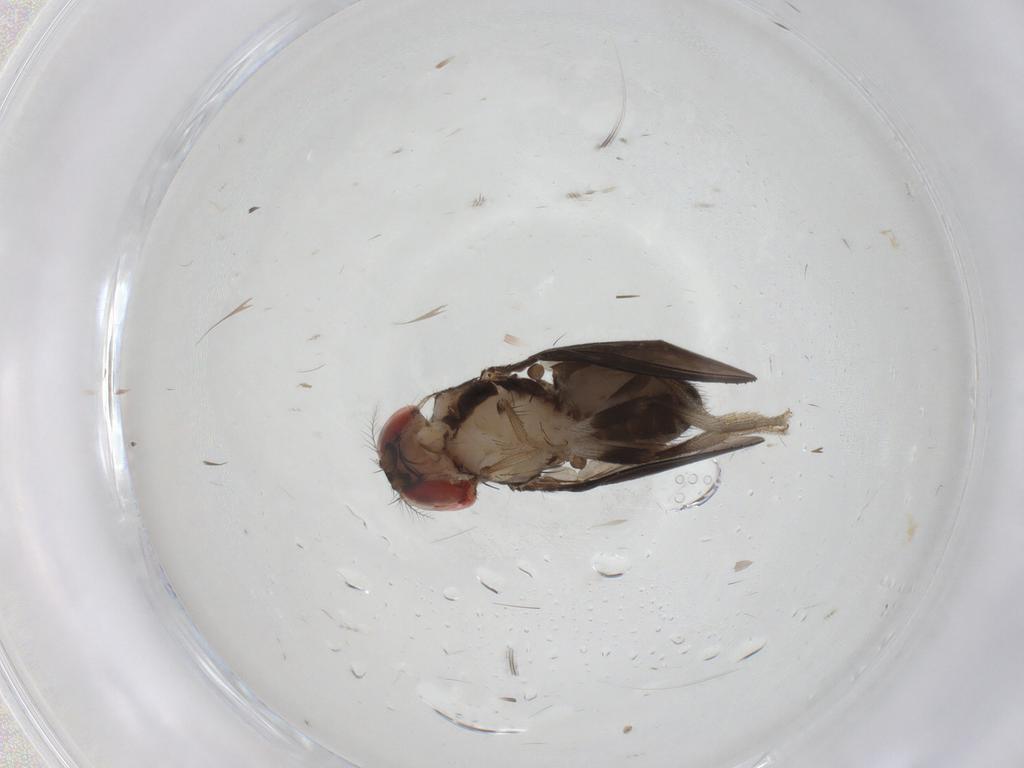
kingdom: Animalia
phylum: Arthropoda
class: Insecta
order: Diptera
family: Drosophilidae
